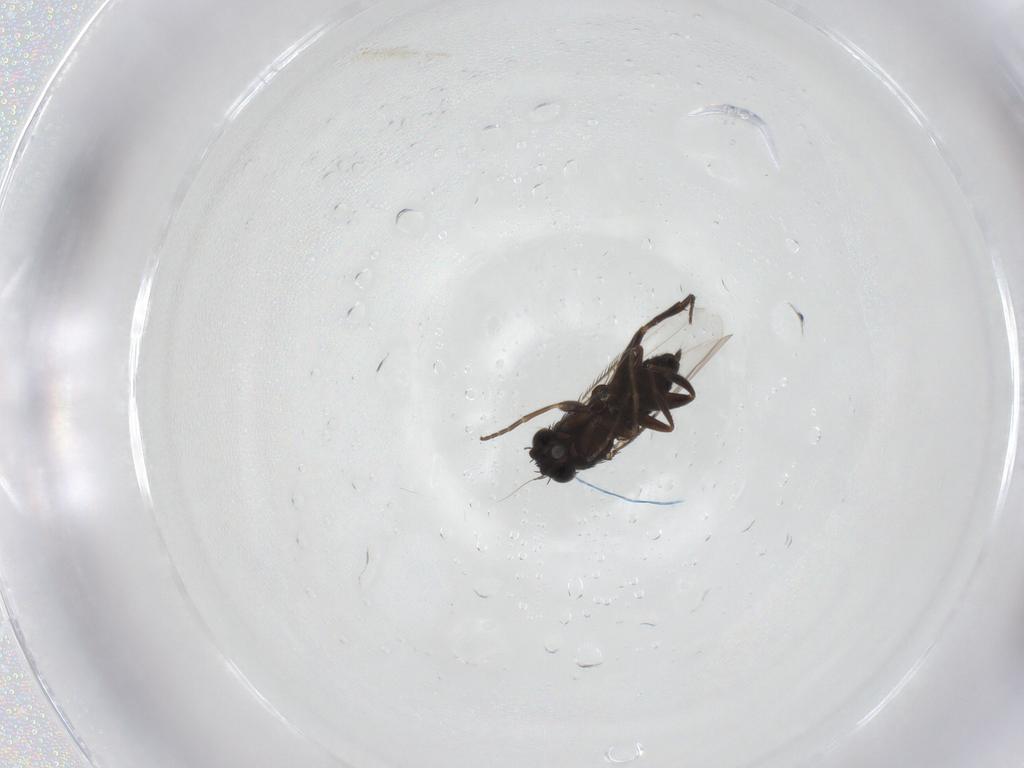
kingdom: Animalia
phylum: Arthropoda
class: Insecta
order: Diptera
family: Phoridae
